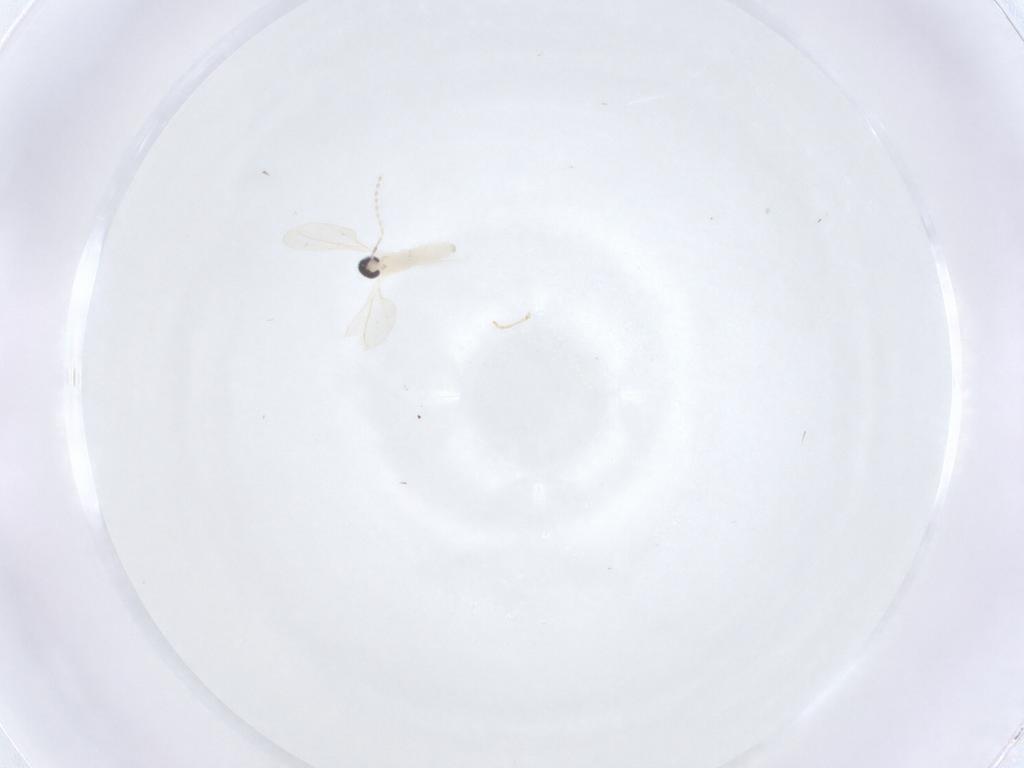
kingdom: Animalia
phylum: Arthropoda
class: Insecta
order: Diptera
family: Cecidomyiidae
